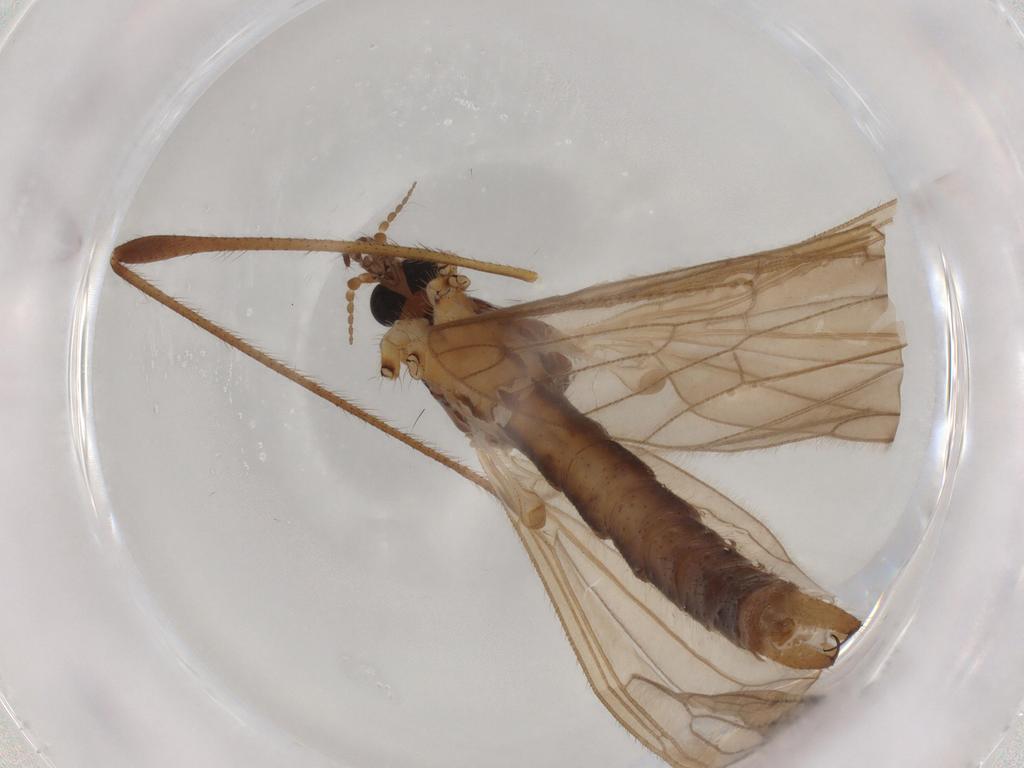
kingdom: Animalia
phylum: Arthropoda
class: Insecta
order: Diptera
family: Limoniidae
